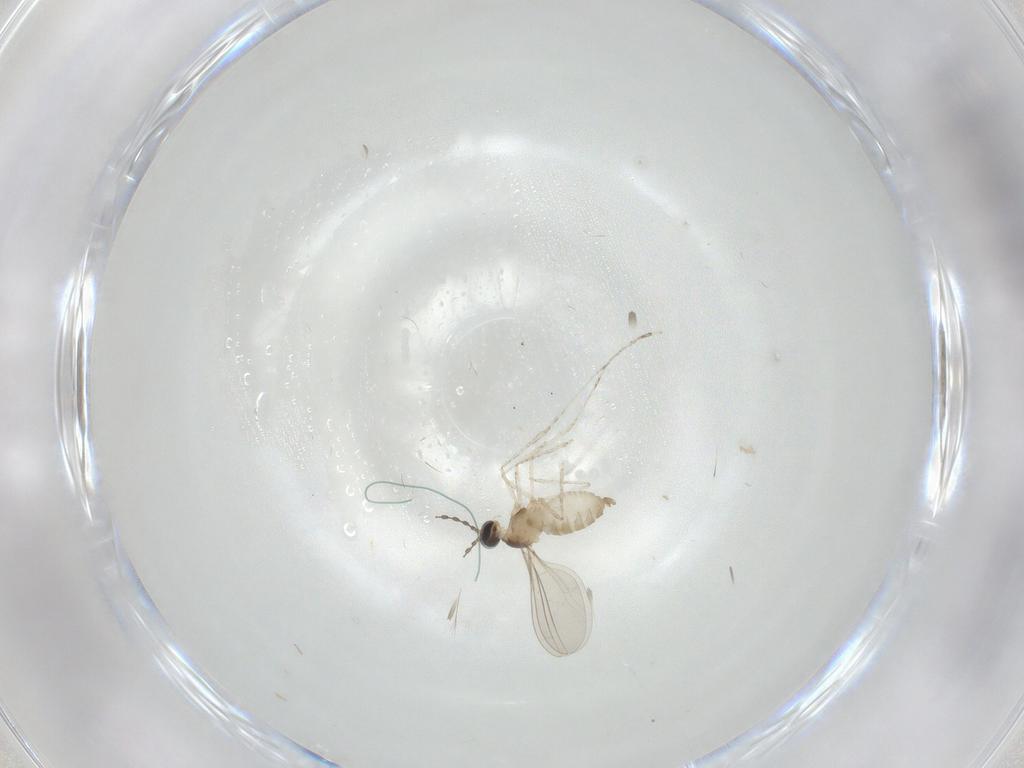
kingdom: Animalia
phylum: Arthropoda
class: Insecta
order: Diptera
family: Cecidomyiidae
